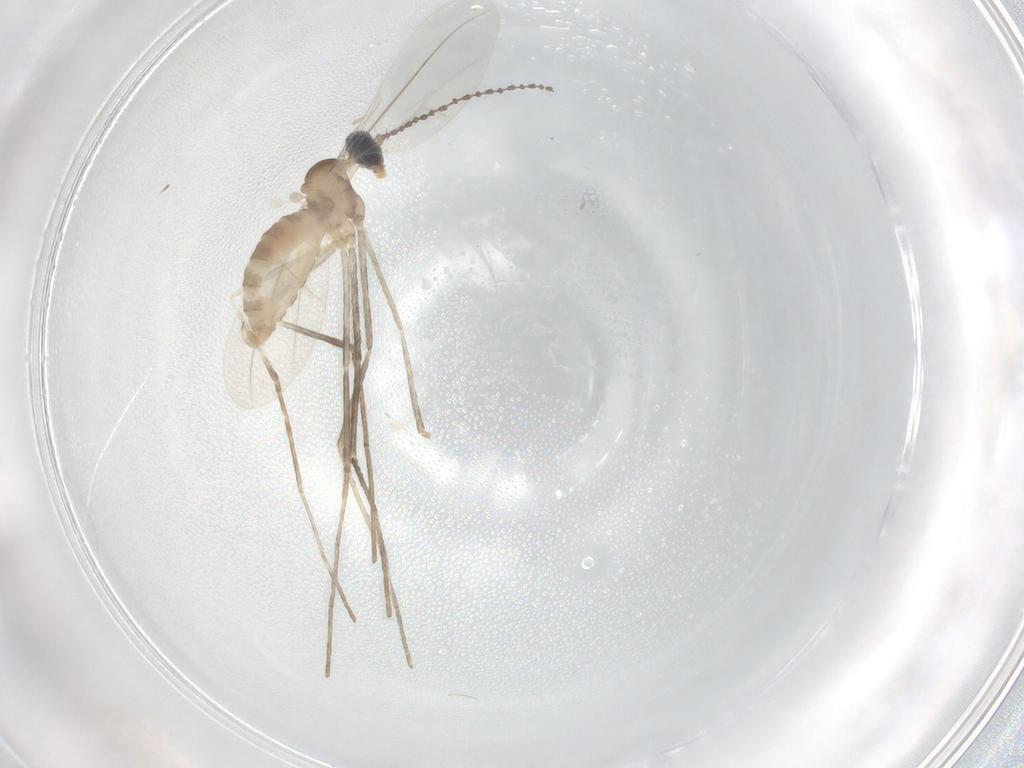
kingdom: Animalia
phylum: Arthropoda
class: Insecta
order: Diptera
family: Cecidomyiidae
